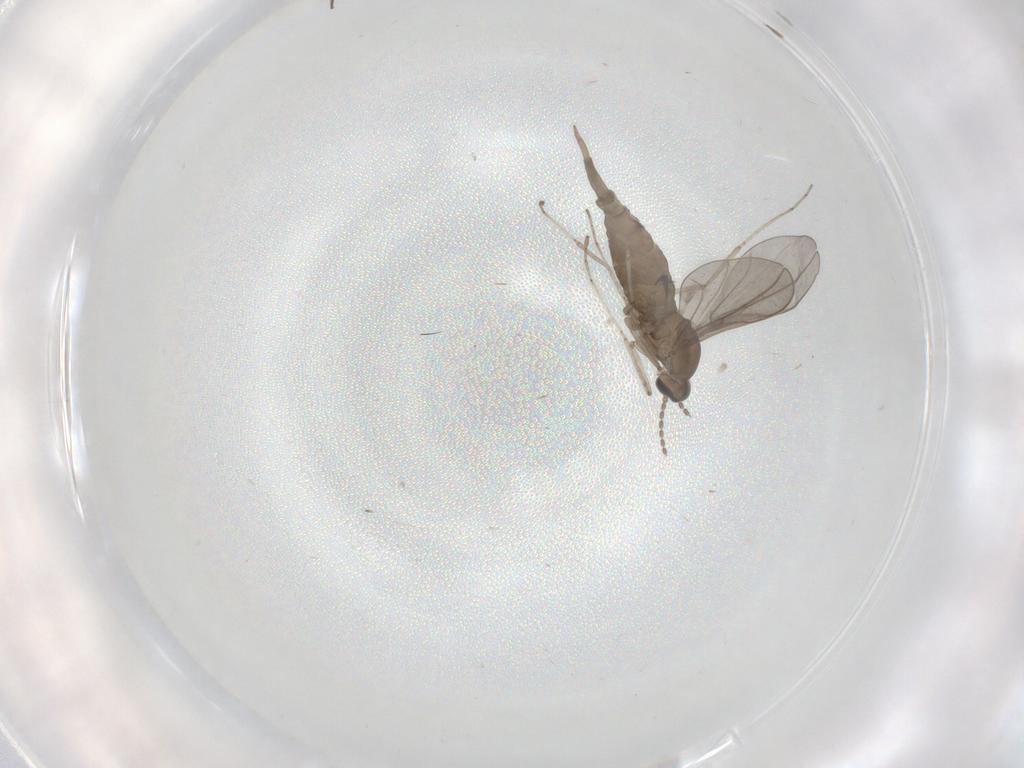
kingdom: Animalia
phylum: Arthropoda
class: Insecta
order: Diptera
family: Cecidomyiidae
